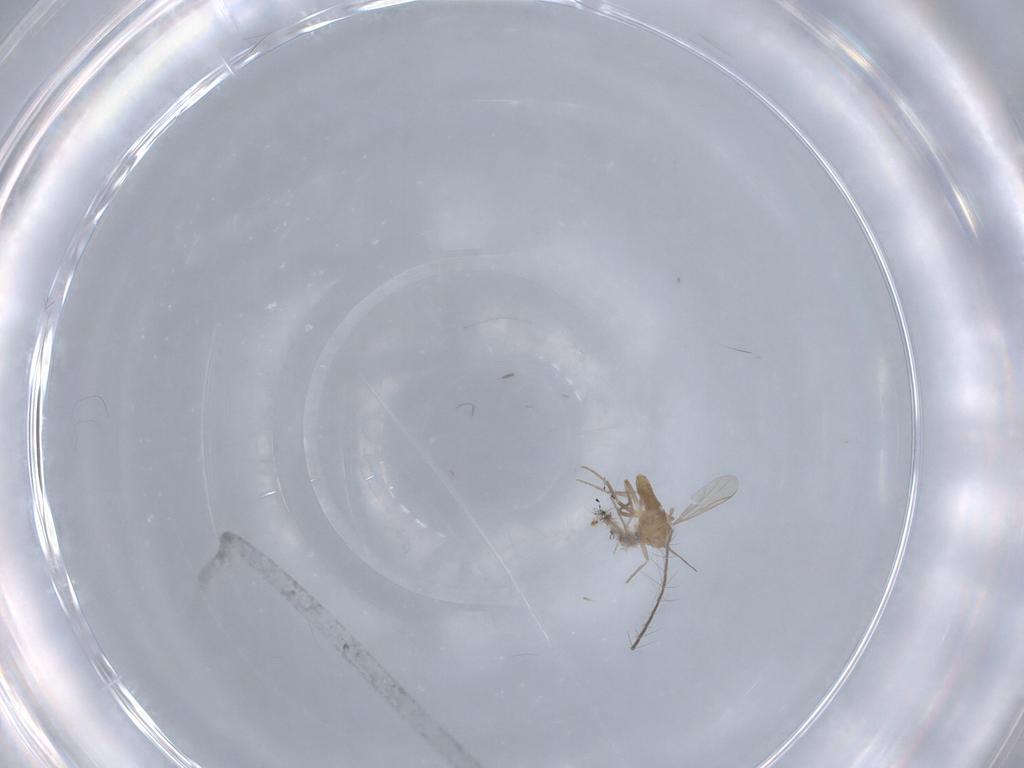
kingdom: Animalia
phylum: Arthropoda
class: Insecta
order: Diptera
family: Chironomidae
